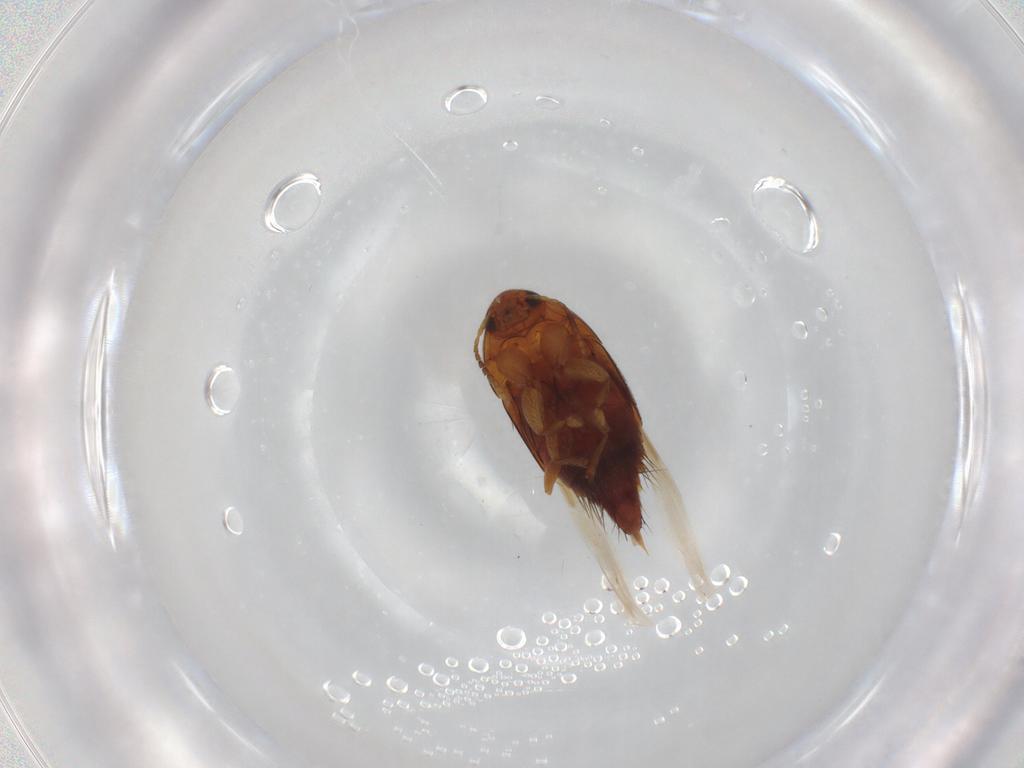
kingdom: Animalia
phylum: Arthropoda
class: Insecta
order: Coleoptera
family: Staphylinidae
